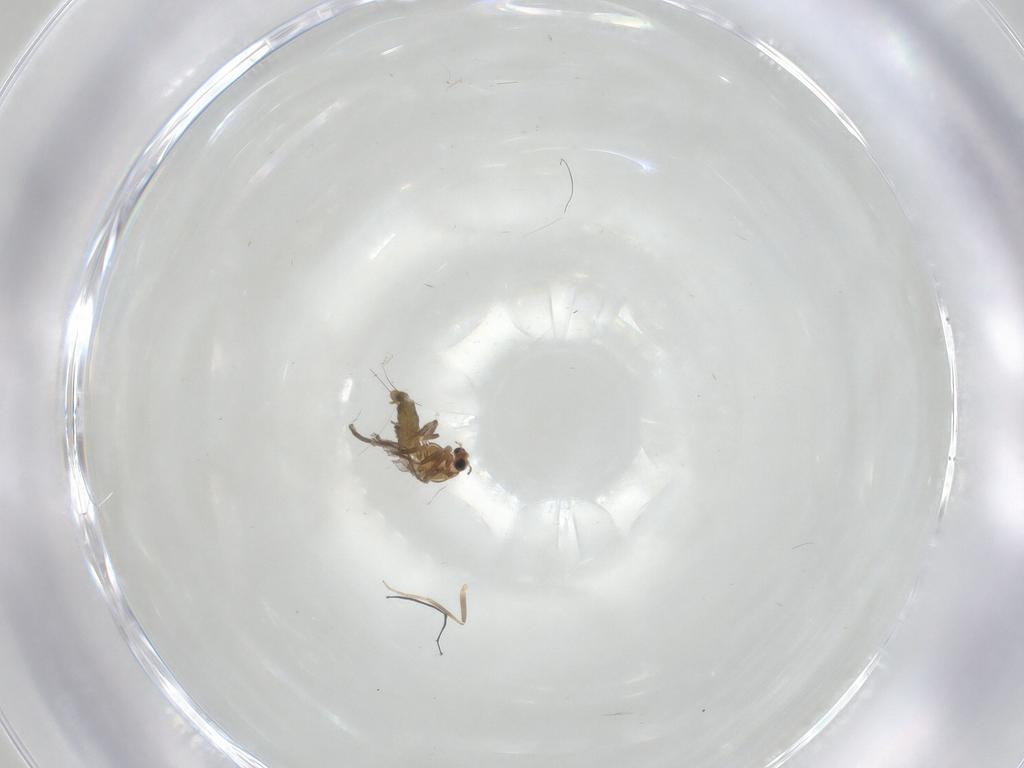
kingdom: Animalia
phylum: Arthropoda
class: Insecta
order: Diptera
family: Chironomidae
